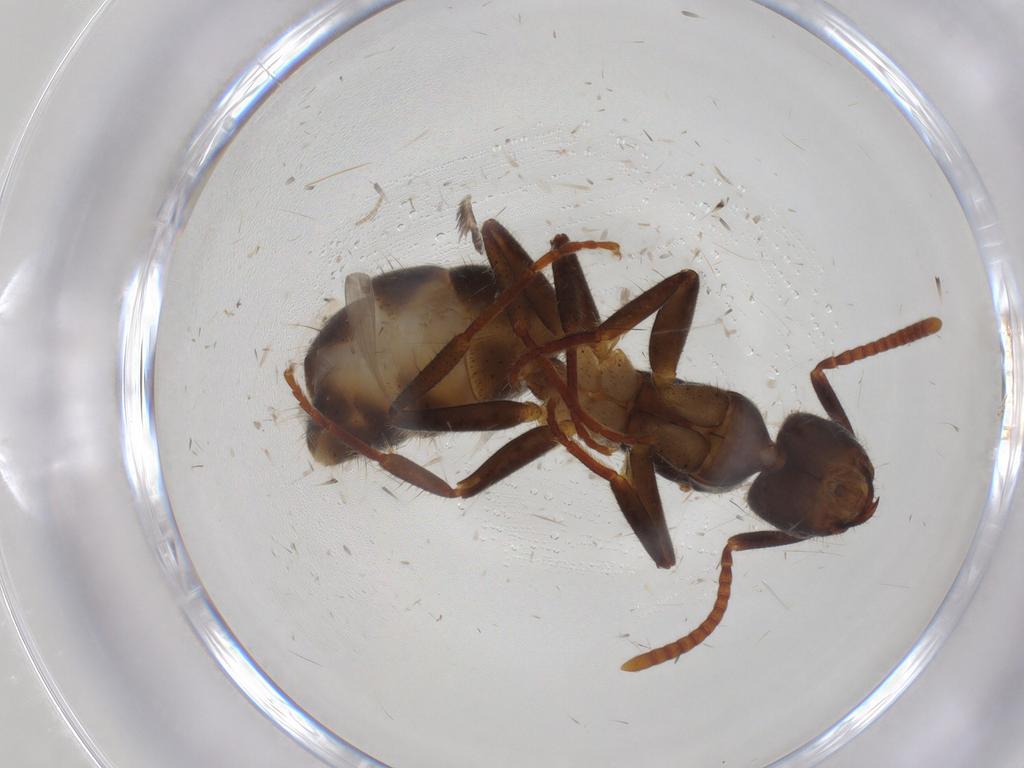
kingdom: Animalia
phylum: Arthropoda
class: Insecta
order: Hymenoptera
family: Formicidae
